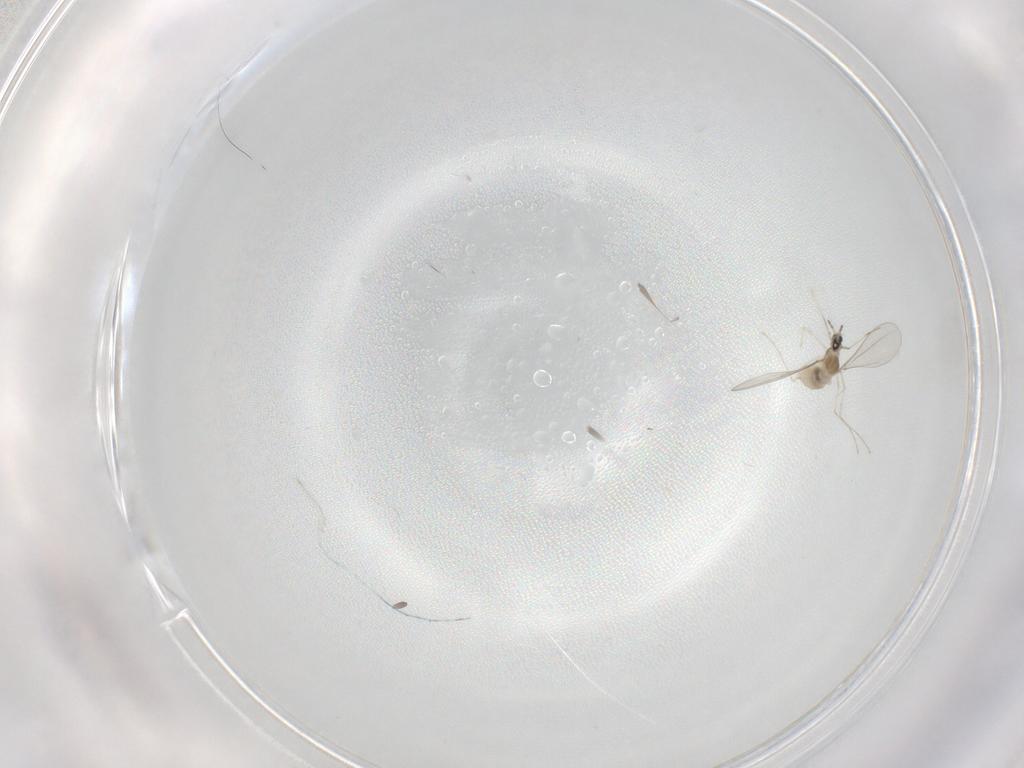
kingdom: Animalia
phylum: Arthropoda
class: Insecta
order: Diptera
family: Cecidomyiidae
